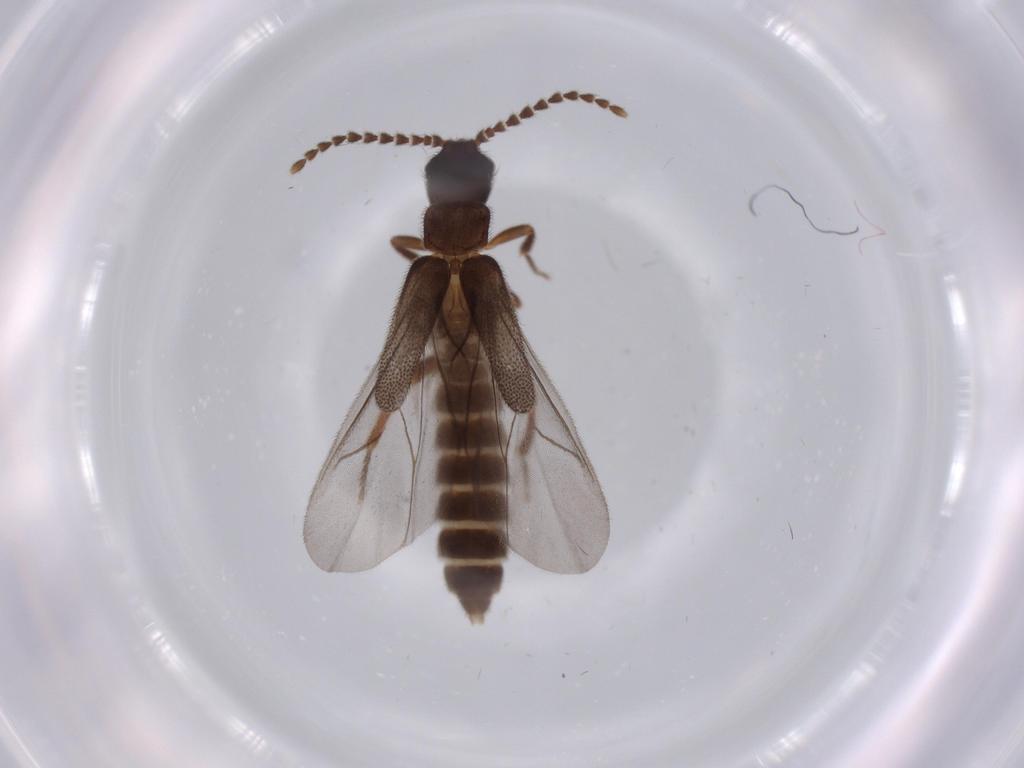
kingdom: Animalia
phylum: Arthropoda
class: Insecta
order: Coleoptera
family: Omethidae
